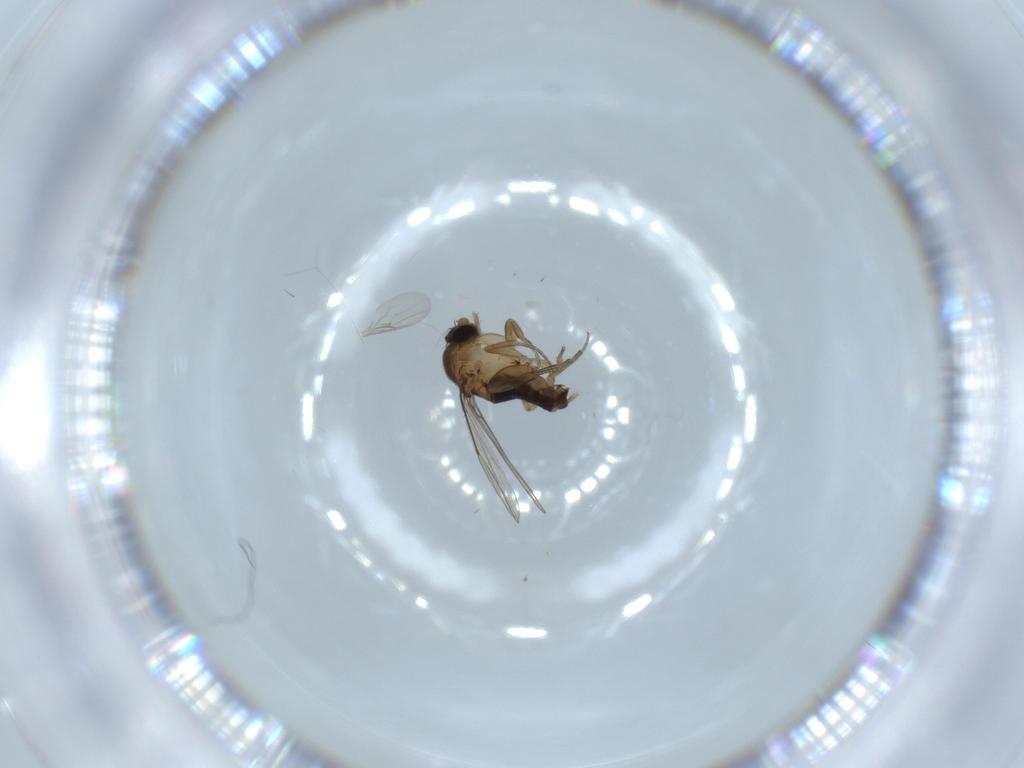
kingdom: Animalia
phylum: Arthropoda
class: Insecta
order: Diptera
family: Phoridae
